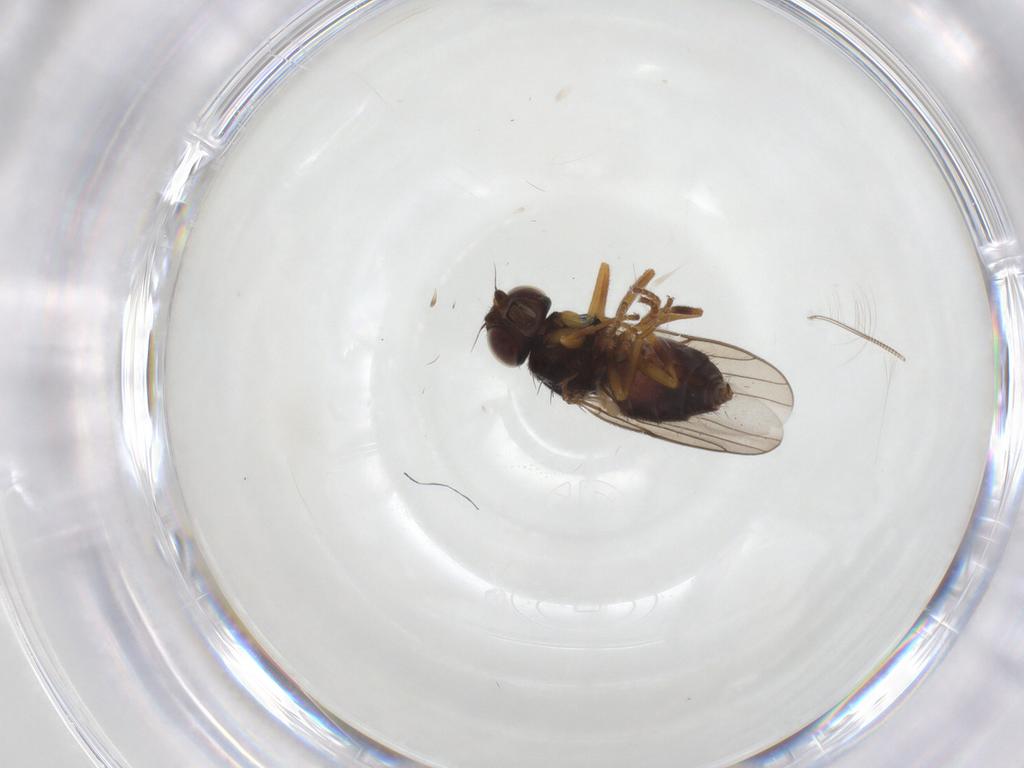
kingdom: Animalia
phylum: Arthropoda
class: Insecta
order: Diptera
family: Chloropidae
